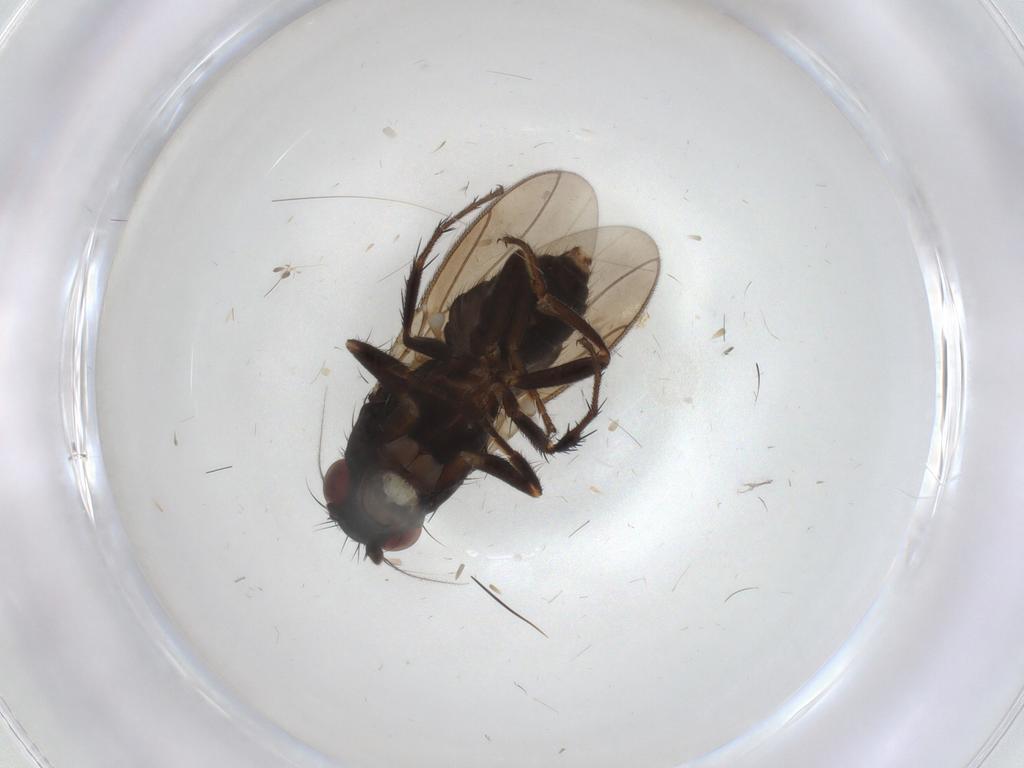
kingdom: Animalia
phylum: Arthropoda
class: Insecta
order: Diptera
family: Sphaeroceridae
